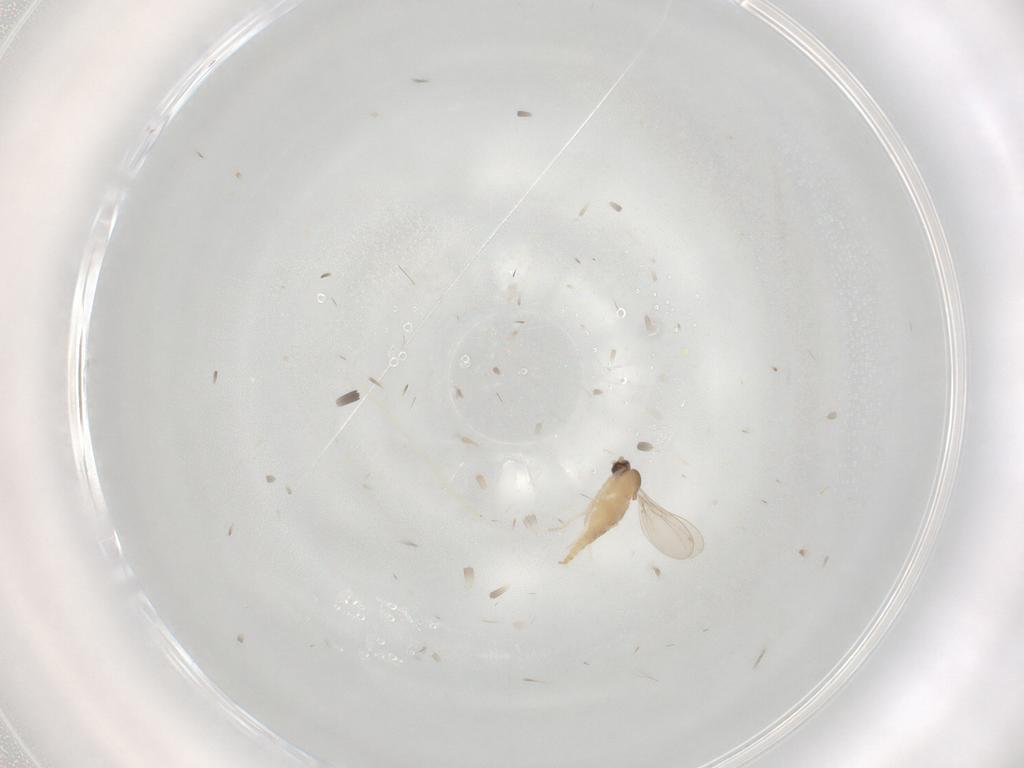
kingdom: Animalia
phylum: Arthropoda
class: Insecta
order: Diptera
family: Cecidomyiidae
